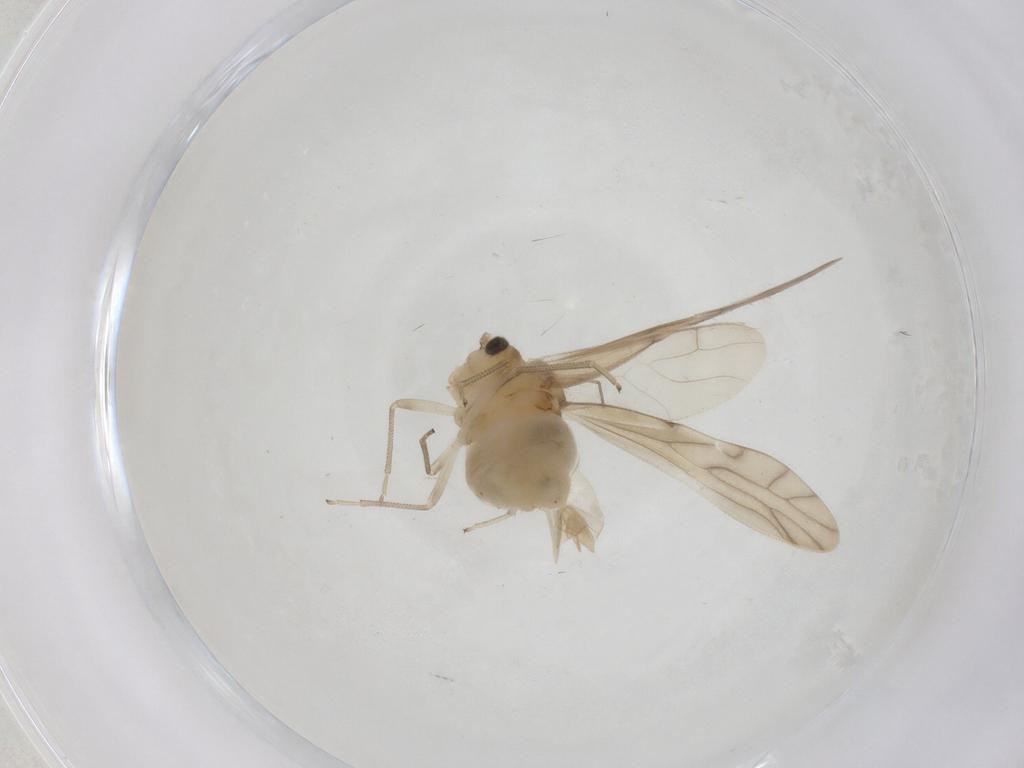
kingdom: Animalia
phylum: Arthropoda
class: Insecta
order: Psocodea
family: Caeciliusidae
